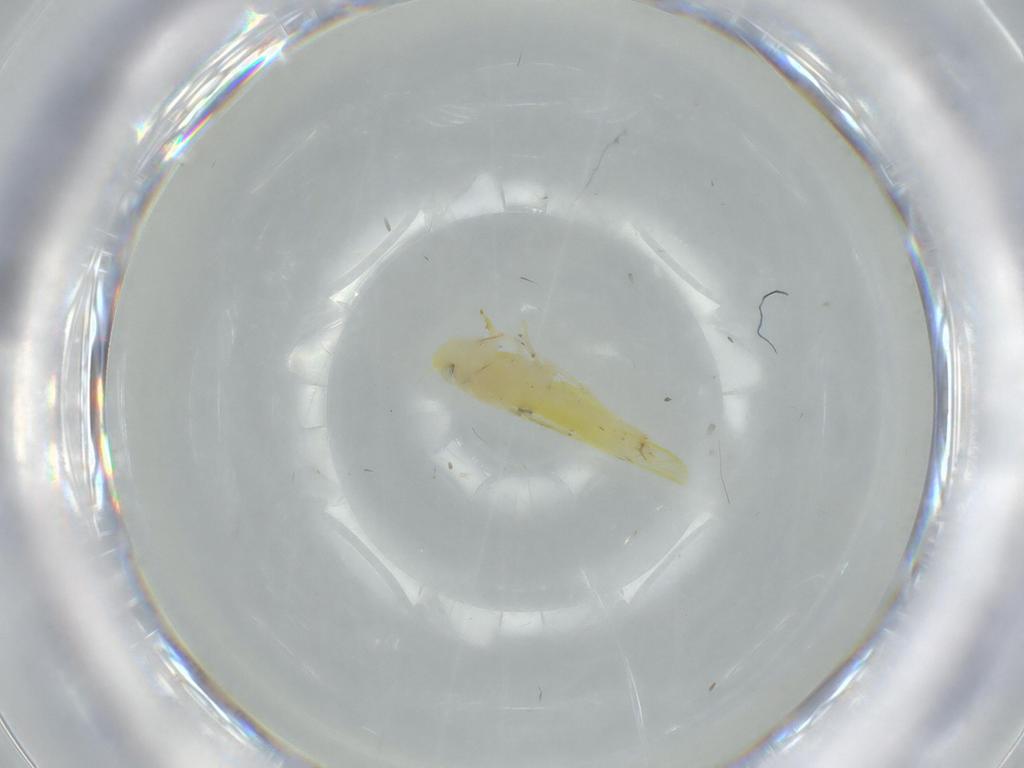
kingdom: Animalia
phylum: Arthropoda
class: Insecta
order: Hemiptera
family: Cicadellidae
